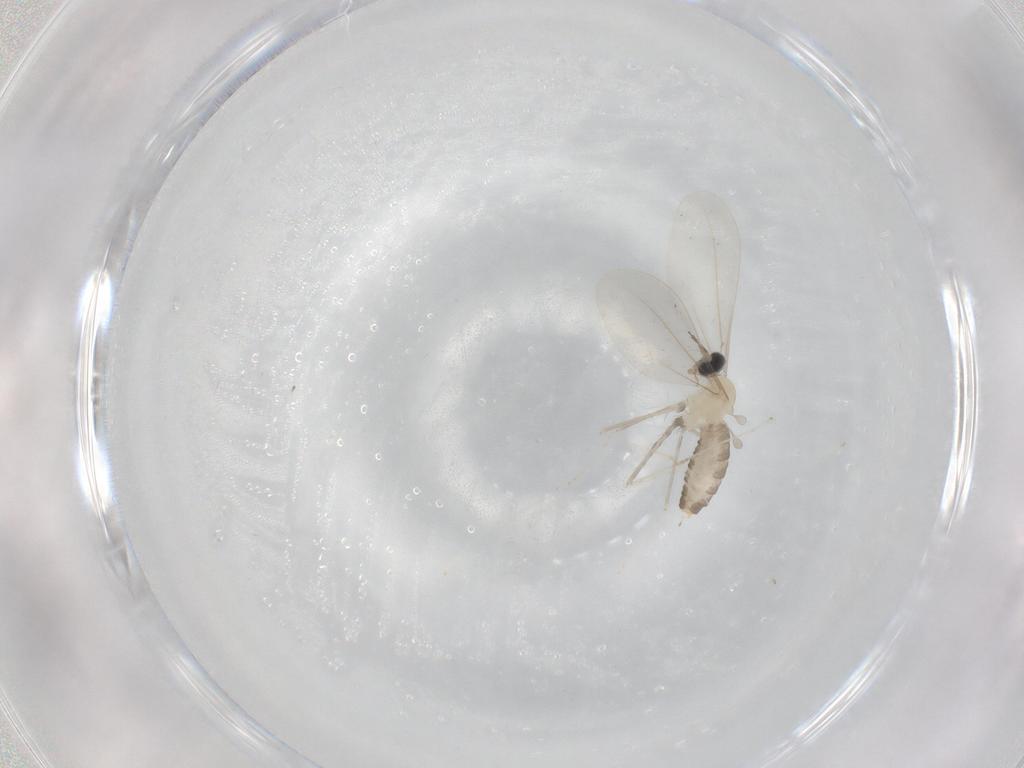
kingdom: Animalia
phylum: Arthropoda
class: Insecta
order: Diptera
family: Cecidomyiidae
